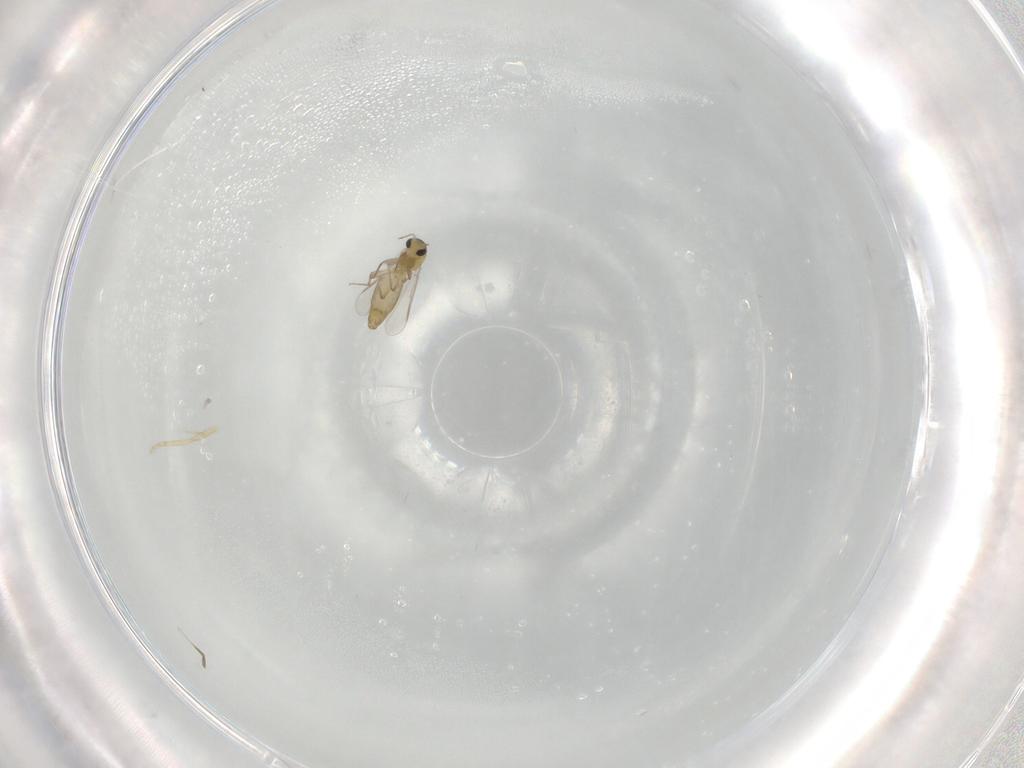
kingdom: Animalia
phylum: Arthropoda
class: Insecta
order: Diptera
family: Chironomidae
